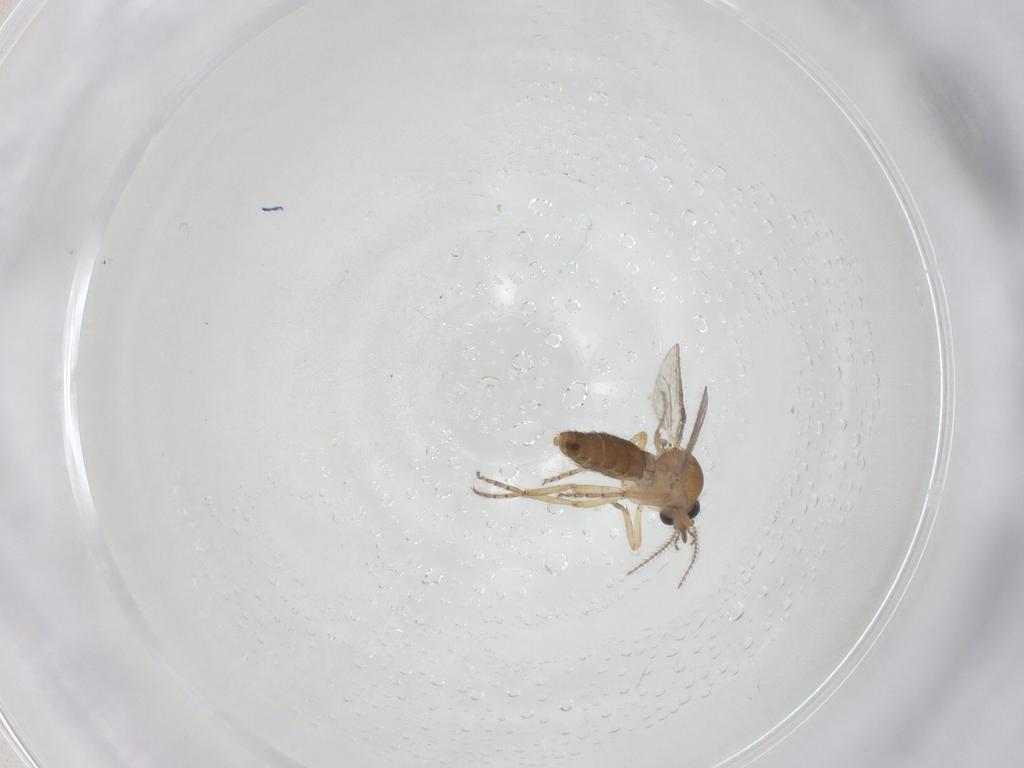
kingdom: Animalia
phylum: Arthropoda
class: Insecta
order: Diptera
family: Ceratopogonidae
